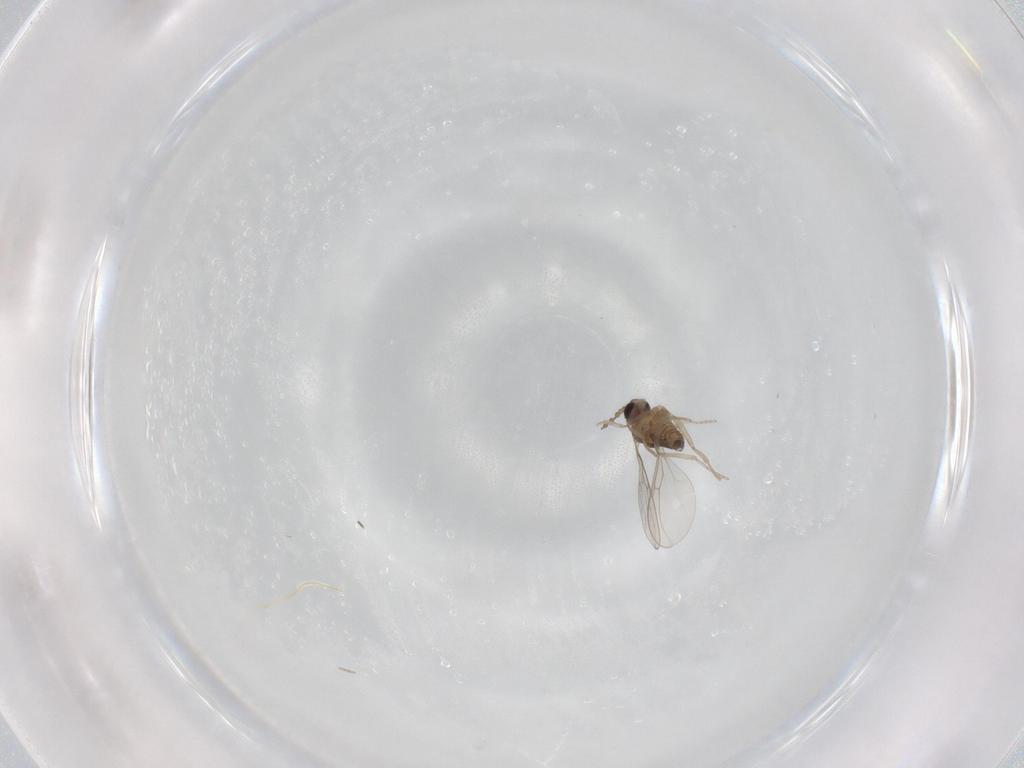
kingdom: Animalia
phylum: Arthropoda
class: Insecta
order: Diptera
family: Cecidomyiidae
